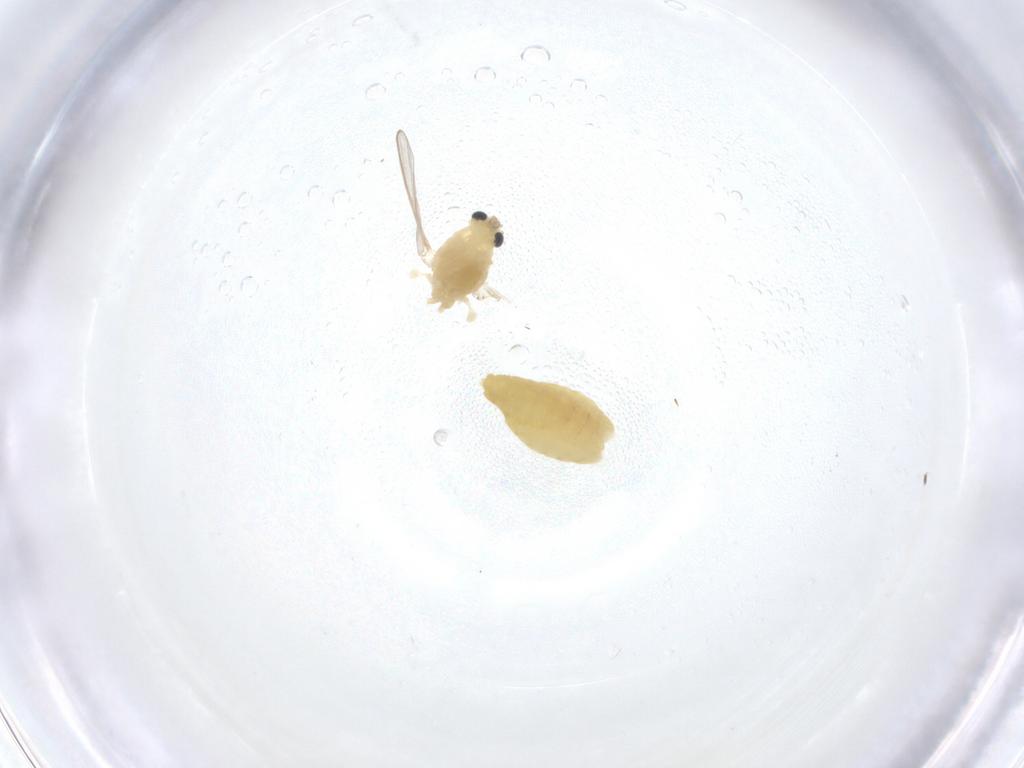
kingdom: Animalia
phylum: Arthropoda
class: Insecta
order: Diptera
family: Chironomidae
